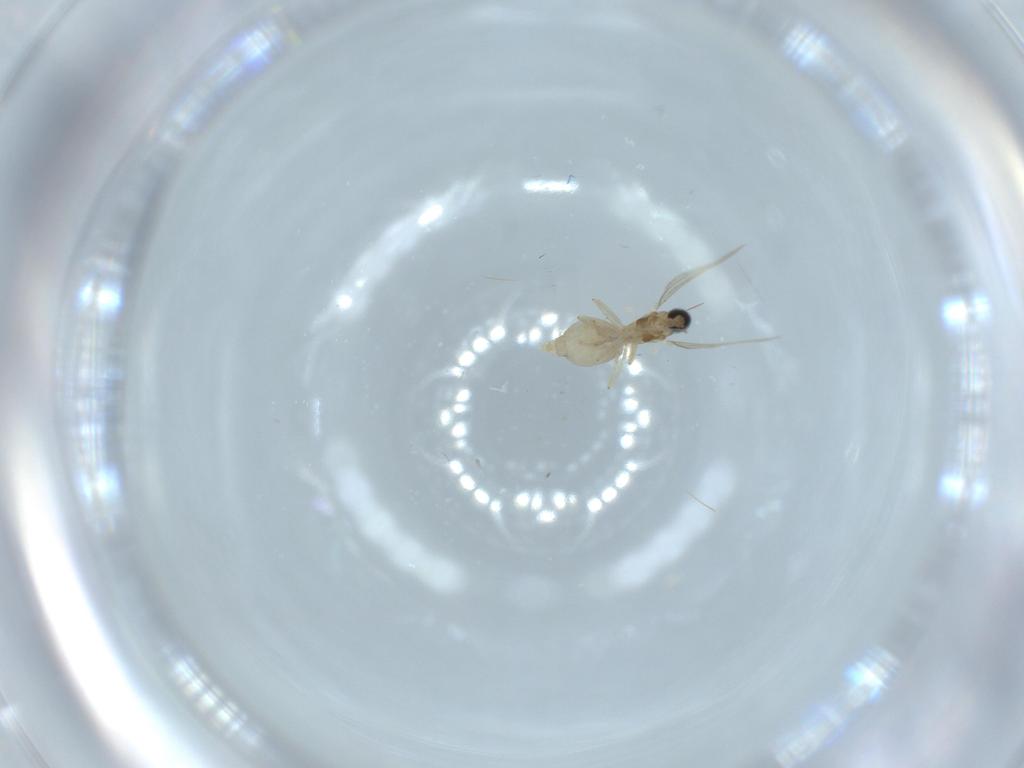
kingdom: Animalia
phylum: Arthropoda
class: Insecta
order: Diptera
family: Cecidomyiidae
